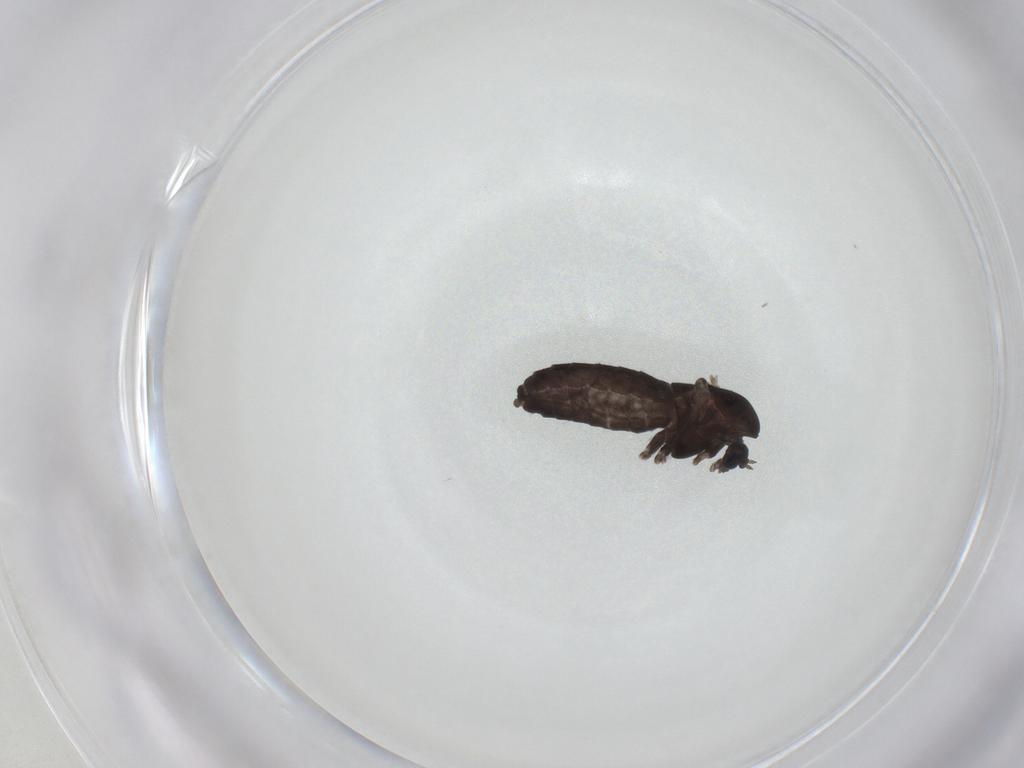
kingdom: Animalia
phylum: Arthropoda
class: Insecta
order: Diptera
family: Chironomidae
